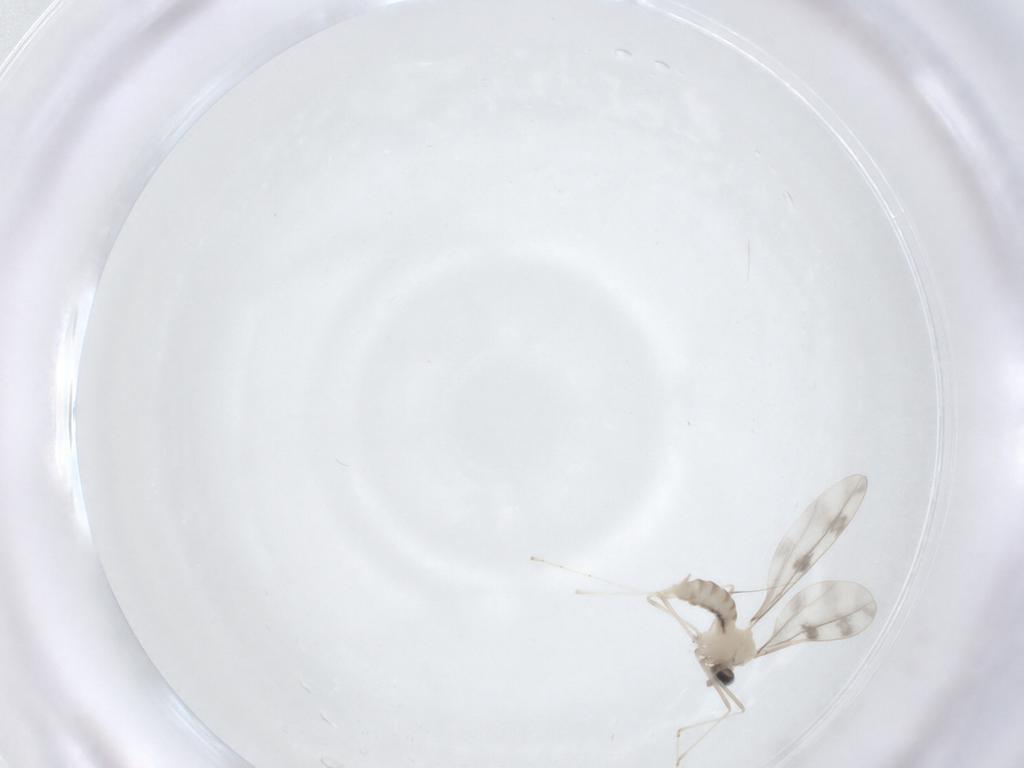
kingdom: Animalia
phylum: Arthropoda
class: Insecta
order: Diptera
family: Cecidomyiidae
